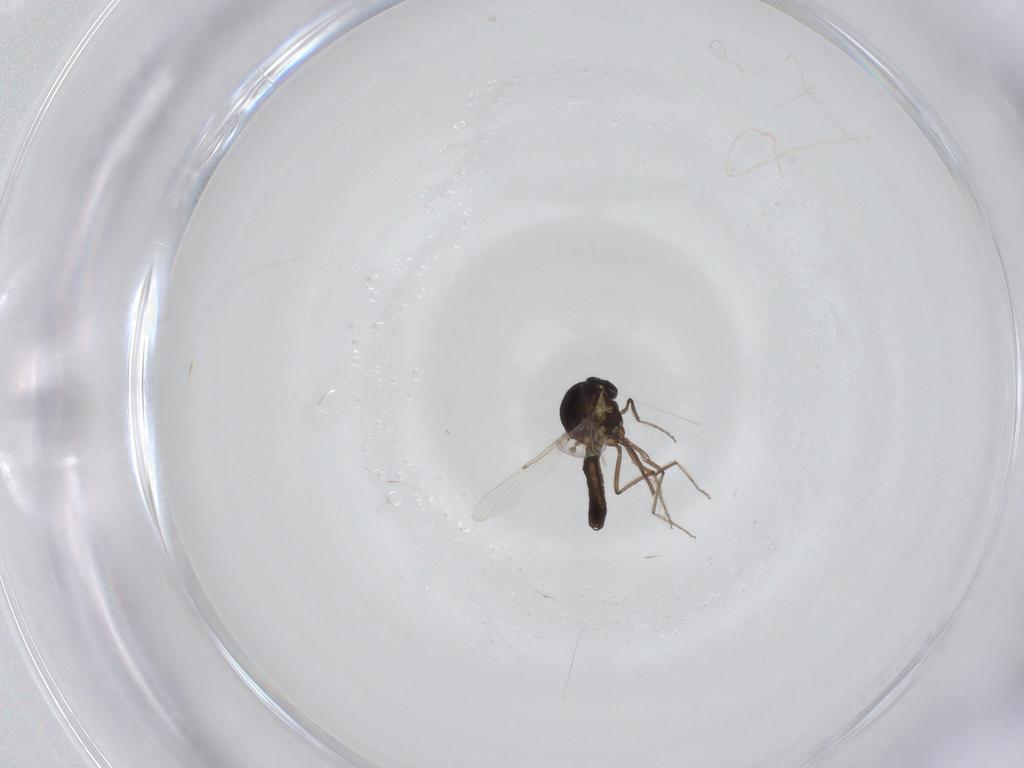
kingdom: Animalia
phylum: Arthropoda
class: Insecta
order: Diptera
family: Ceratopogonidae
